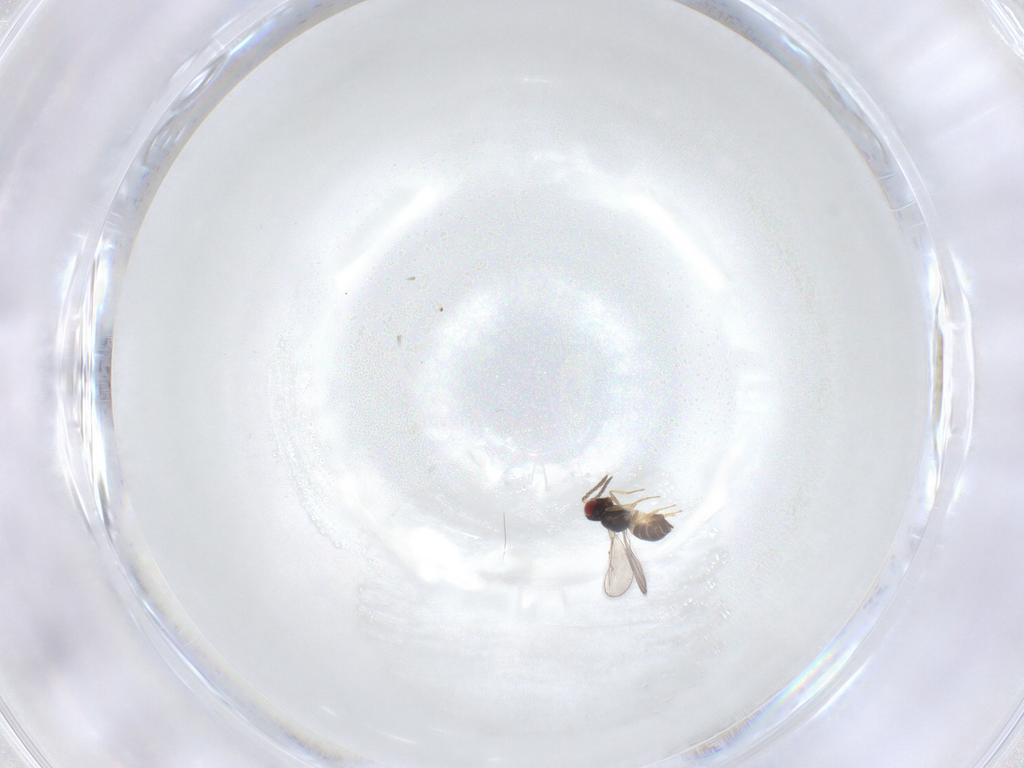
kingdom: Animalia
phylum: Arthropoda
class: Insecta
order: Hymenoptera
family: Eulophidae
